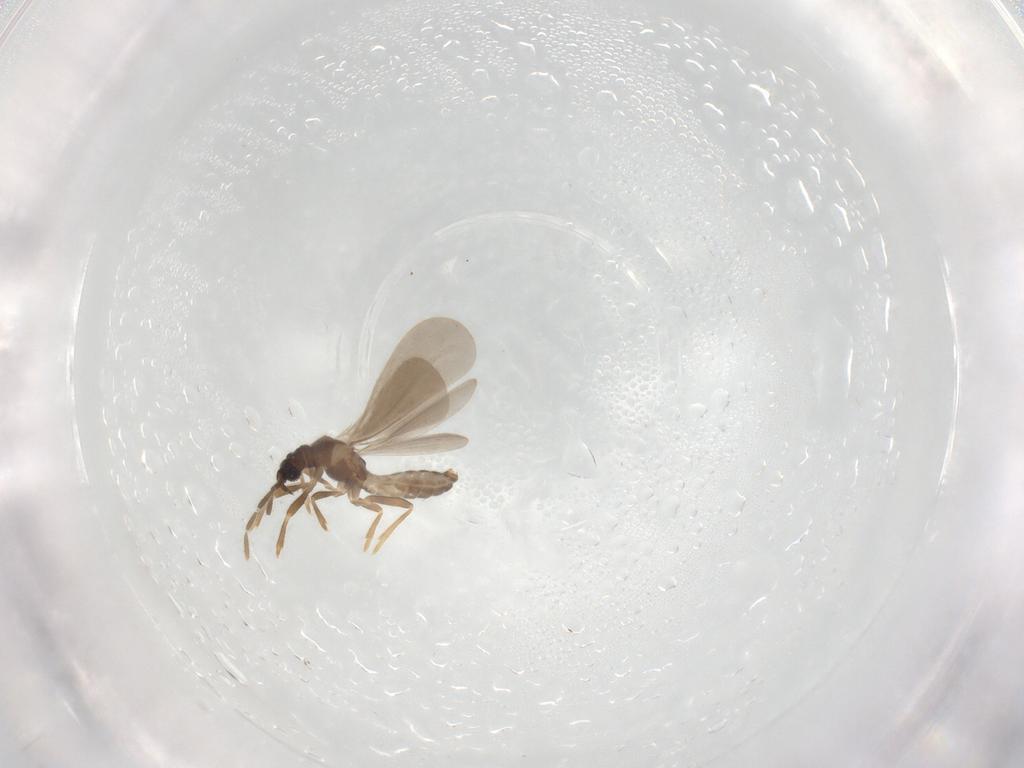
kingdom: Animalia
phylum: Arthropoda
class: Insecta
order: Hemiptera
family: Enicocephalidae
